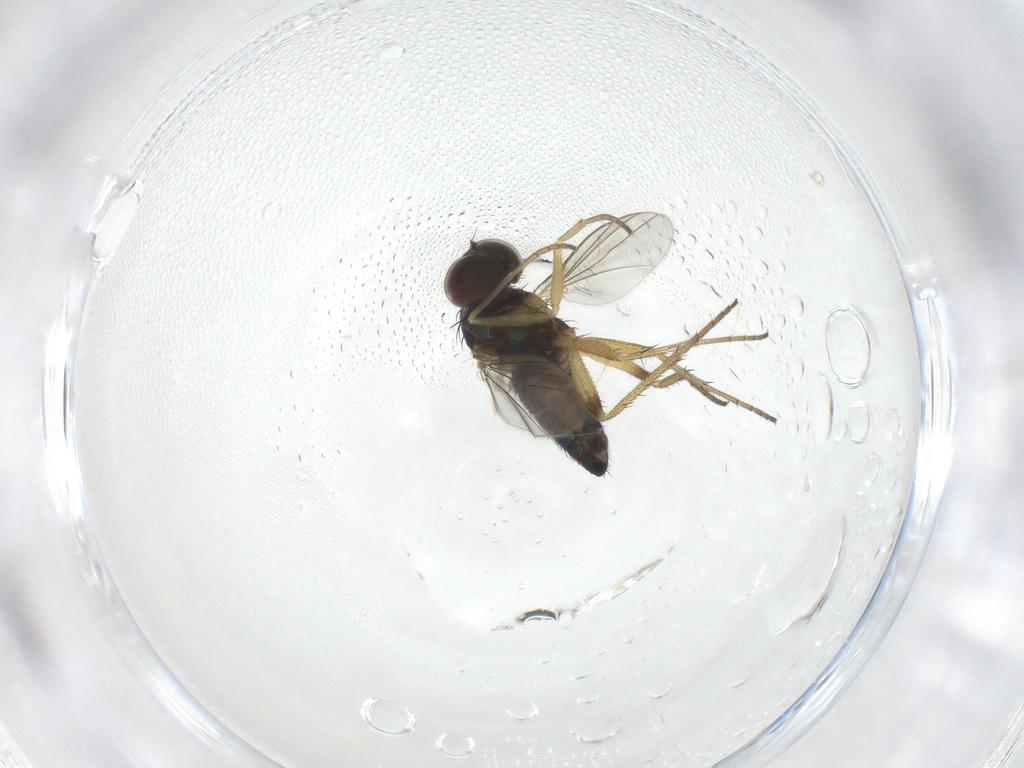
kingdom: Animalia
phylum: Arthropoda
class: Insecta
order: Diptera
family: Dolichopodidae
